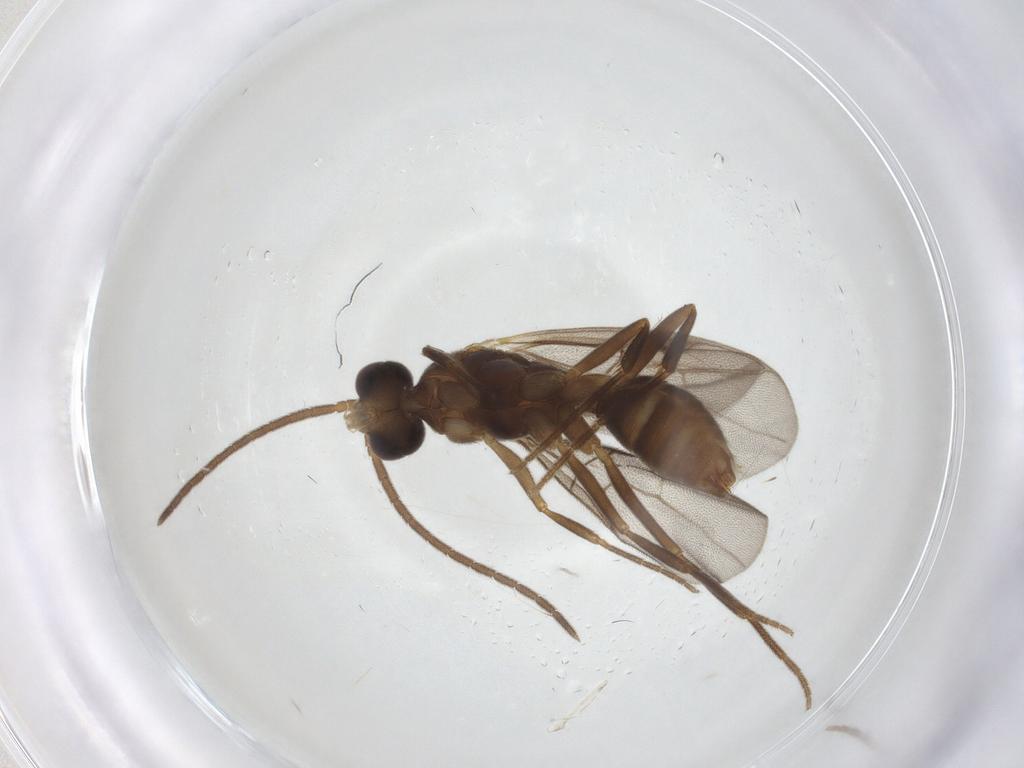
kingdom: Animalia
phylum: Arthropoda
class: Insecta
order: Hymenoptera
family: Formicidae
